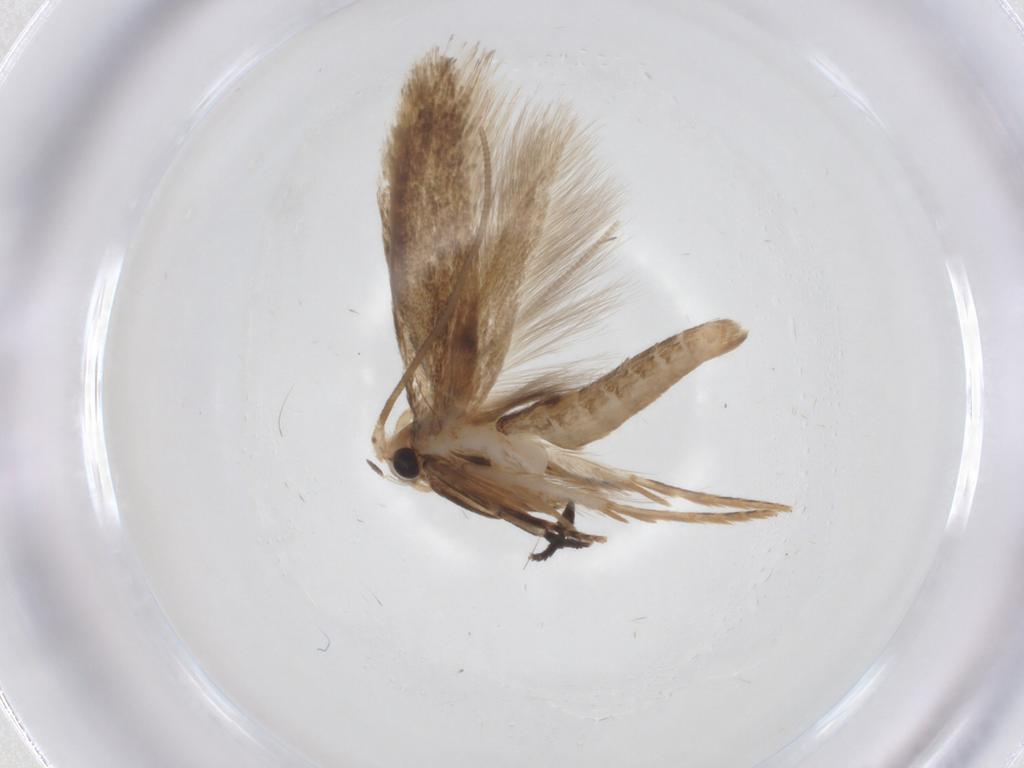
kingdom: Animalia
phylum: Arthropoda
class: Insecta
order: Lepidoptera
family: Tineidae
